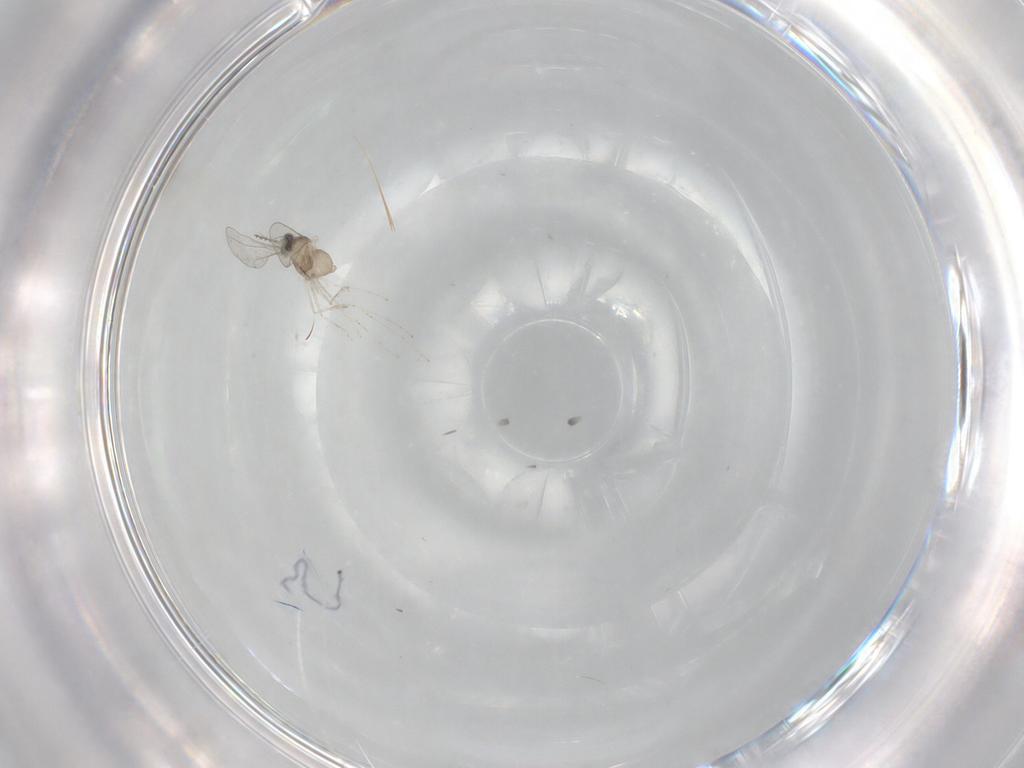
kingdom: Animalia
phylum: Arthropoda
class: Insecta
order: Diptera
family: Cecidomyiidae
